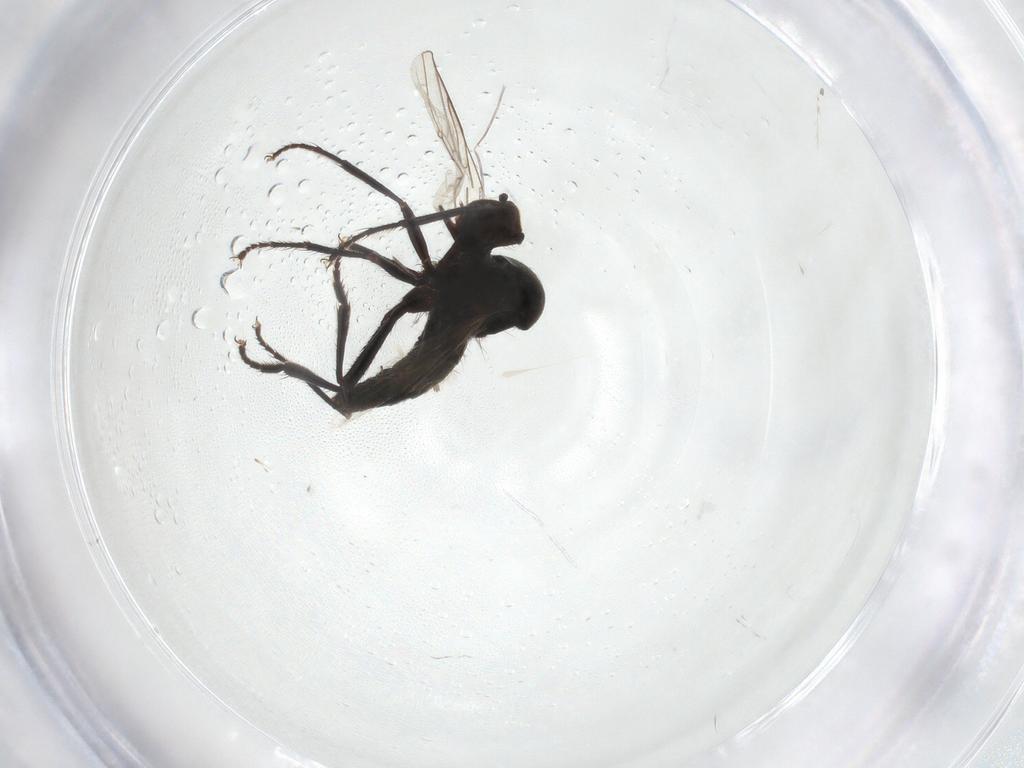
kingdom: Animalia
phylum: Arthropoda
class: Insecta
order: Diptera
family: Hybotidae
